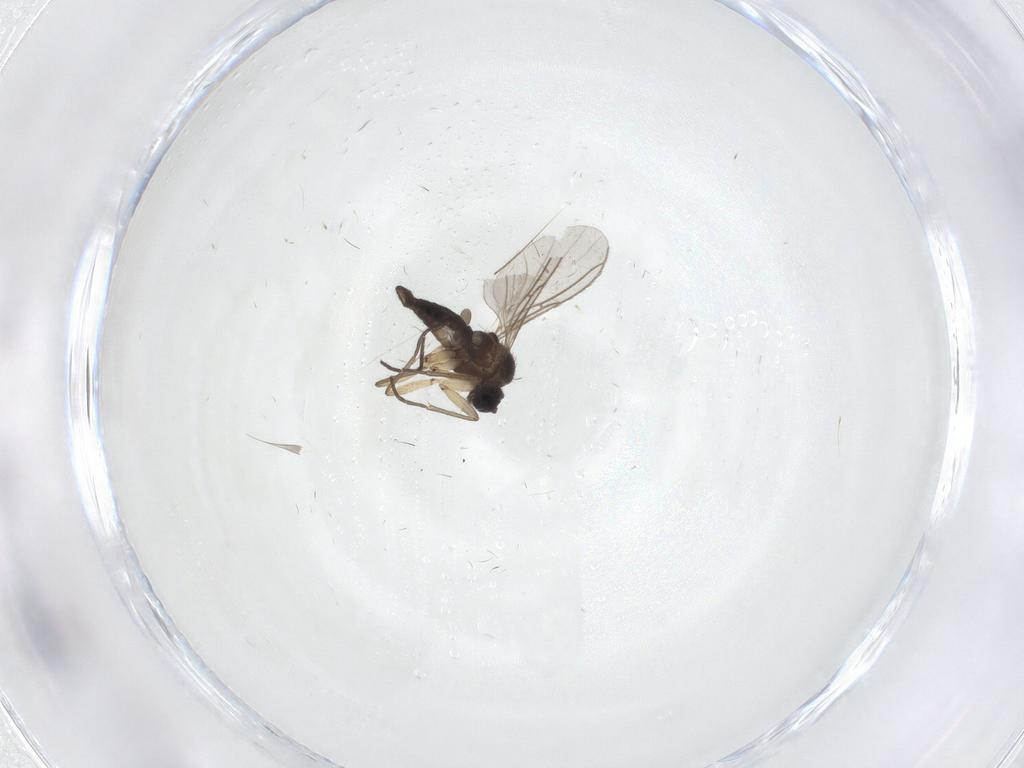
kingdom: Animalia
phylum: Arthropoda
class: Insecta
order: Diptera
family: Sciaridae
